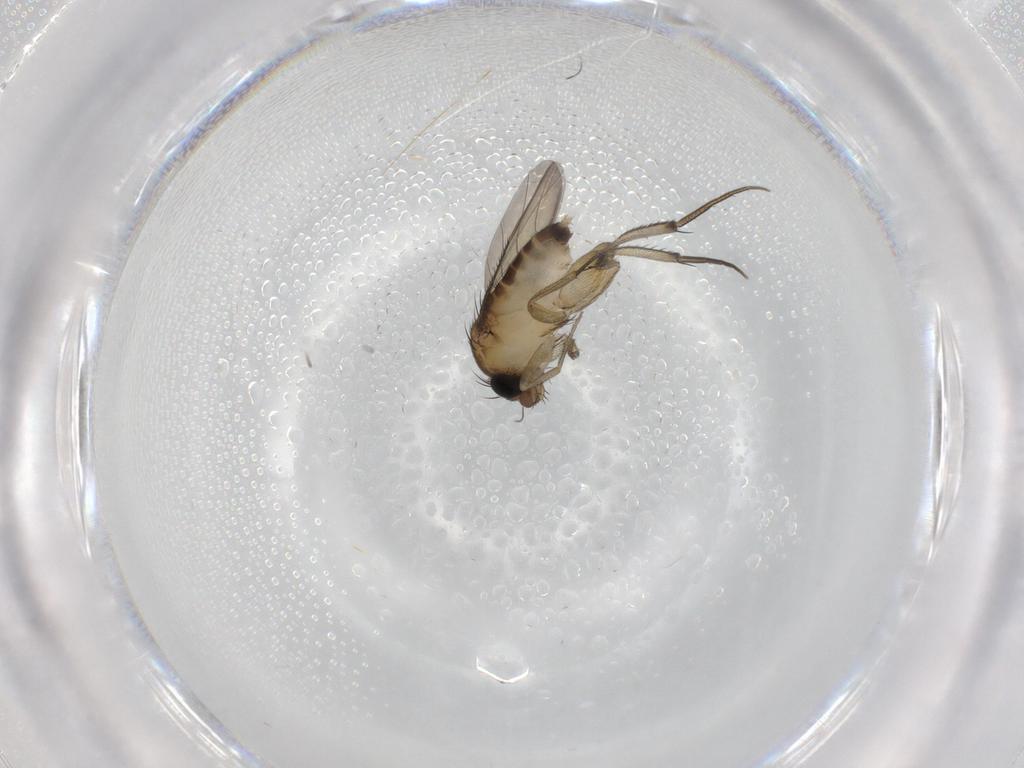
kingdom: Animalia
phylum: Arthropoda
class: Insecta
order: Diptera
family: Phoridae
